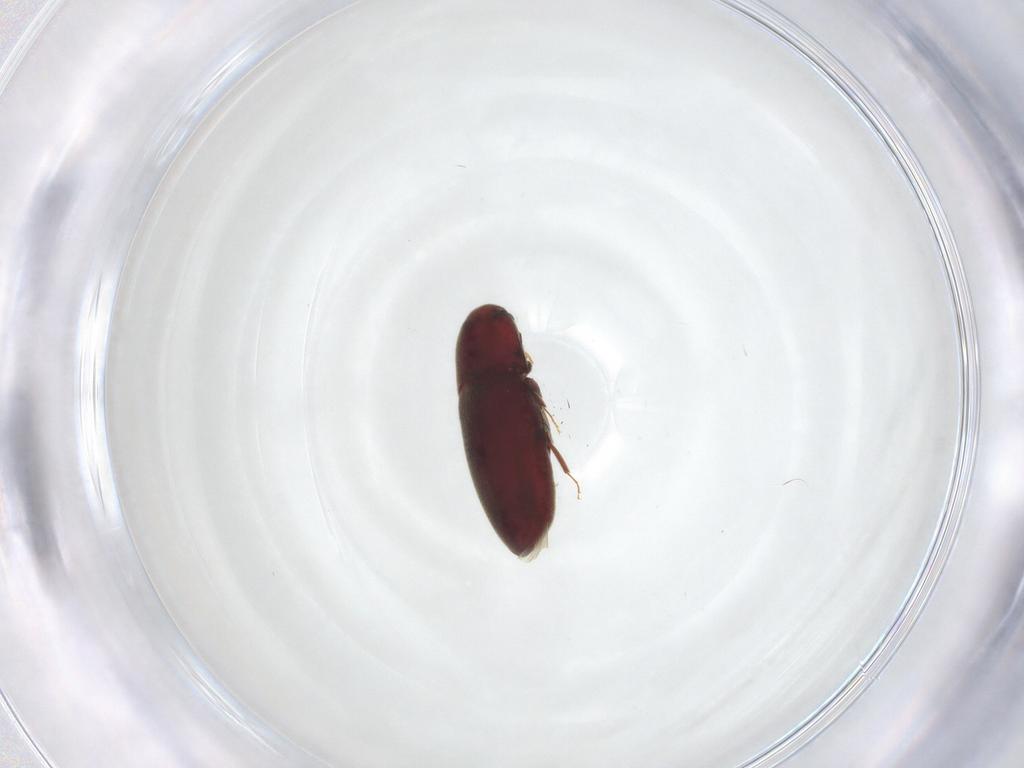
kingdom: Animalia
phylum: Arthropoda
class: Insecta
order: Coleoptera
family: Throscidae
